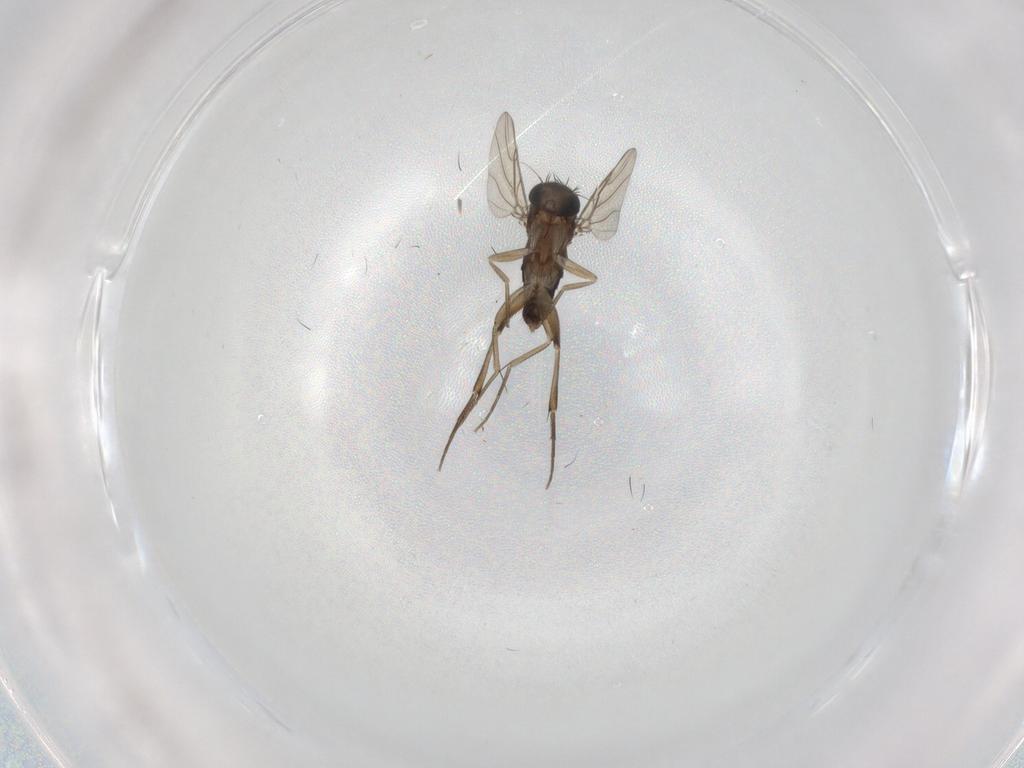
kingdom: Animalia
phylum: Arthropoda
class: Insecta
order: Diptera
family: Phoridae
